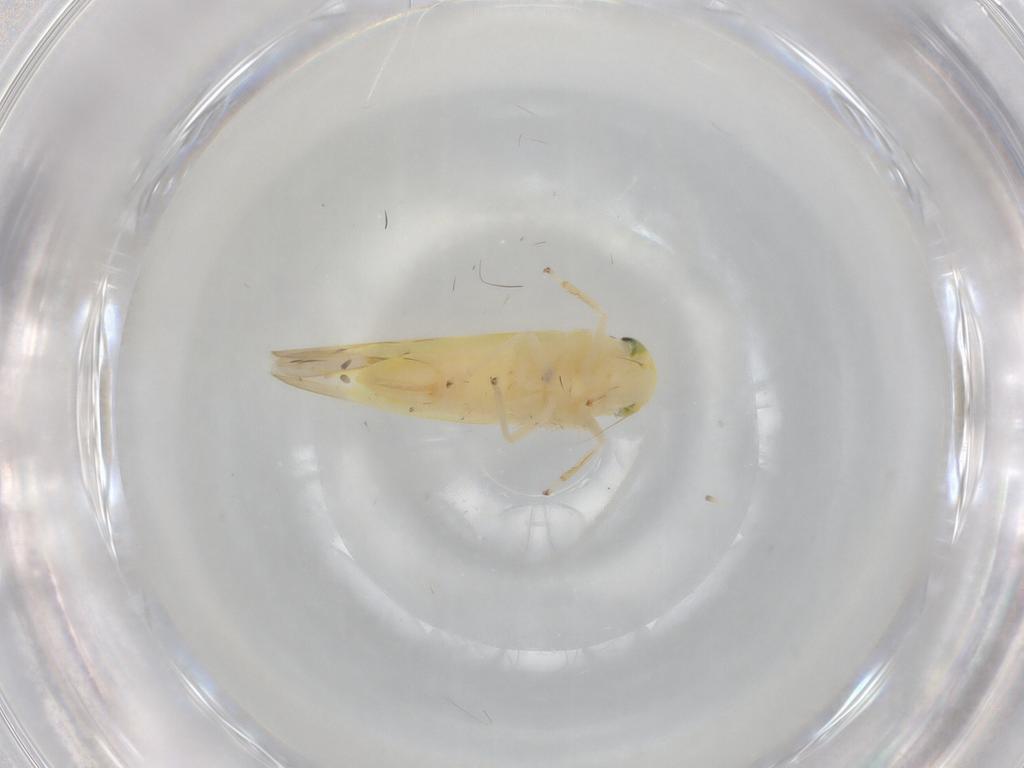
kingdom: Animalia
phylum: Arthropoda
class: Insecta
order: Hemiptera
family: Cicadellidae
